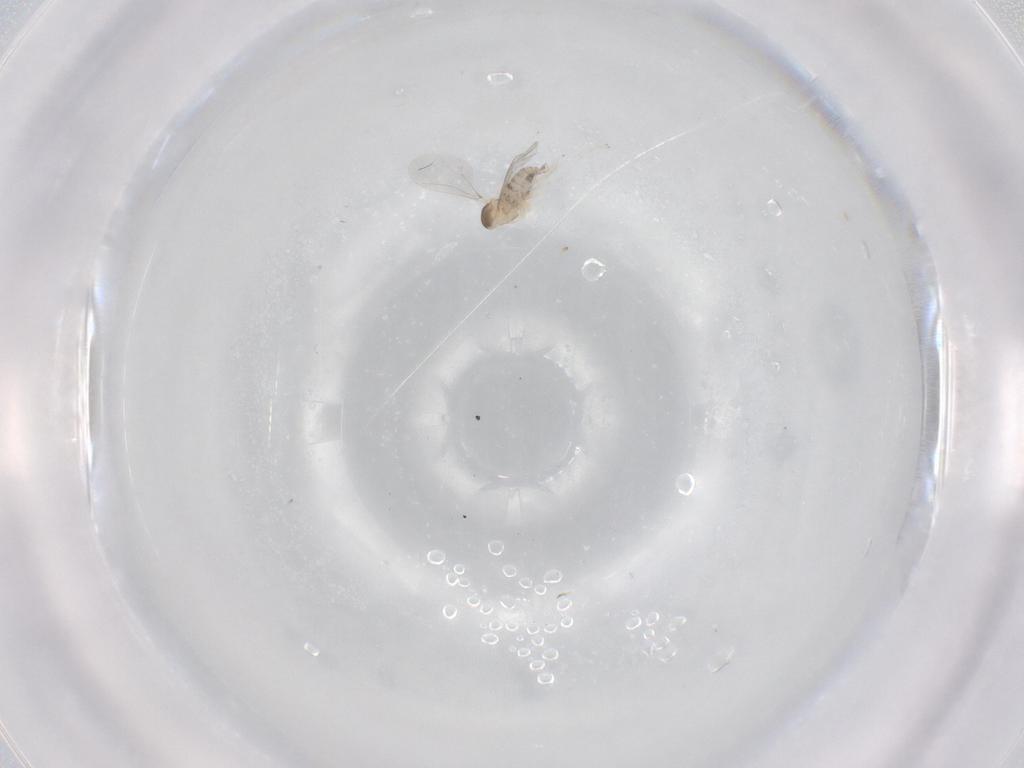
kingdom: Animalia
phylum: Arthropoda
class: Insecta
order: Diptera
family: Cecidomyiidae
